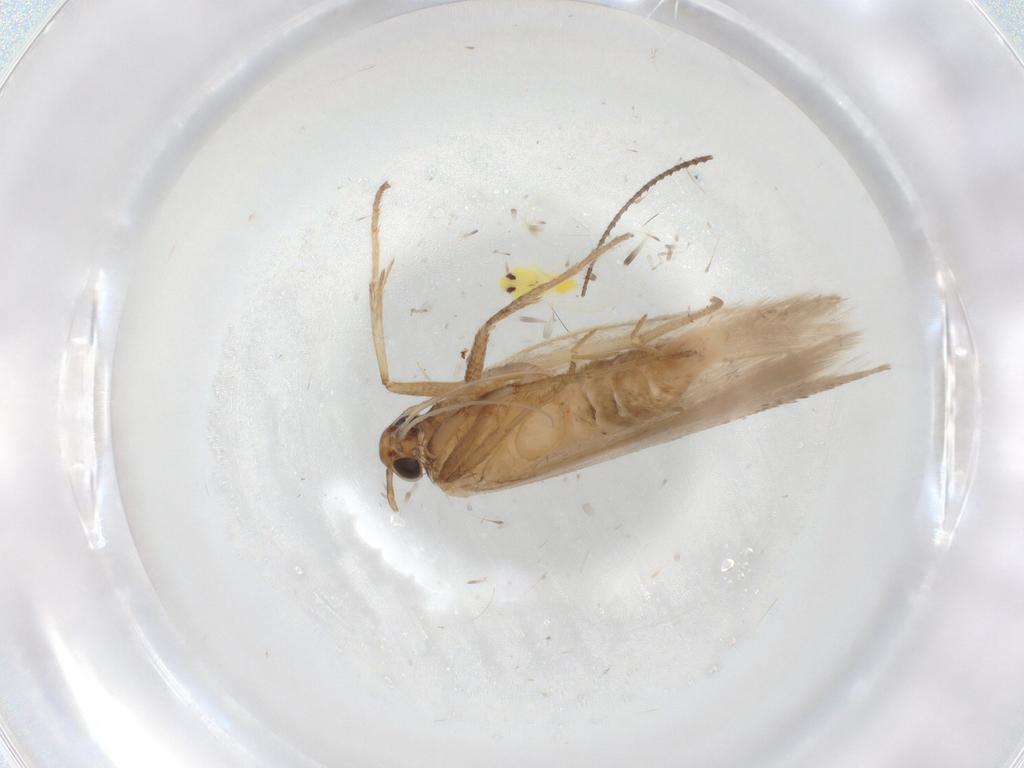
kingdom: Animalia
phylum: Arthropoda
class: Insecta
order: Lepidoptera
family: Gelechiidae
